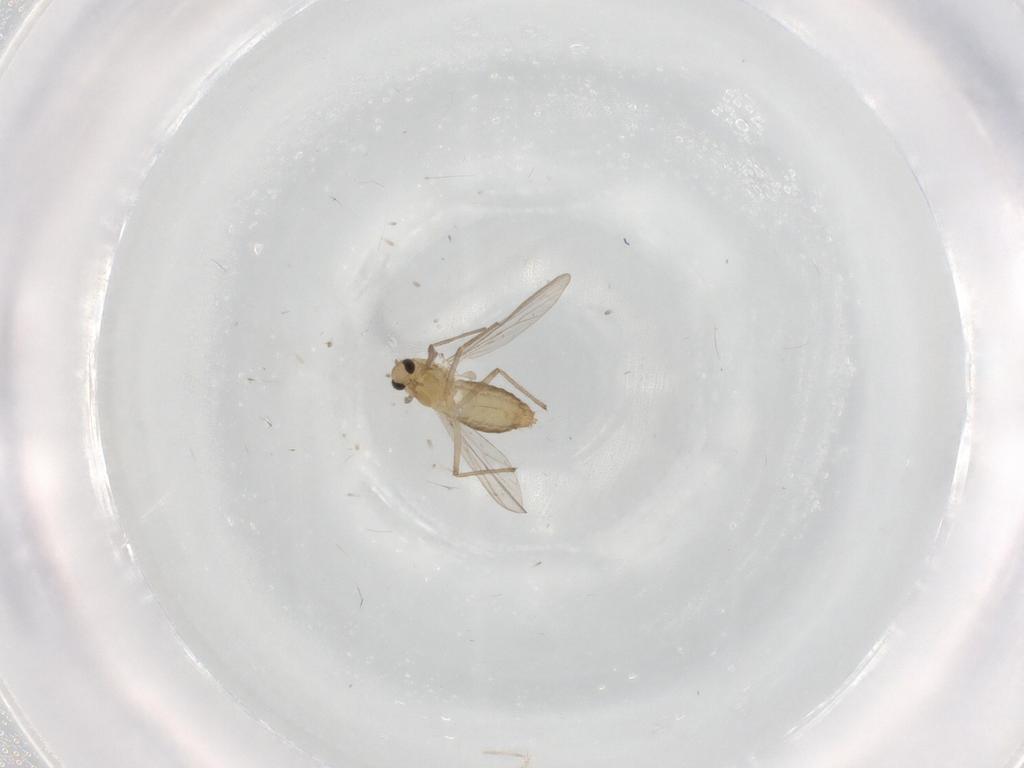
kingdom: Animalia
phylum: Arthropoda
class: Insecta
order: Diptera
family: Chironomidae
